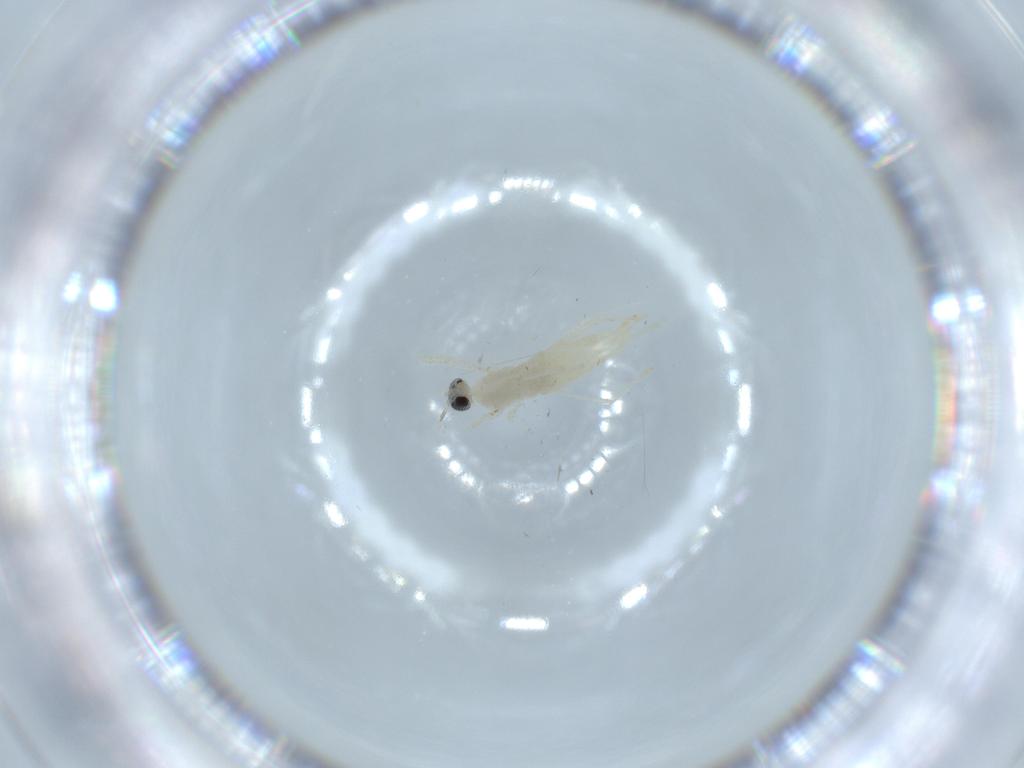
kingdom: Animalia
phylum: Arthropoda
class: Insecta
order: Diptera
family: Cecidomyiidae
